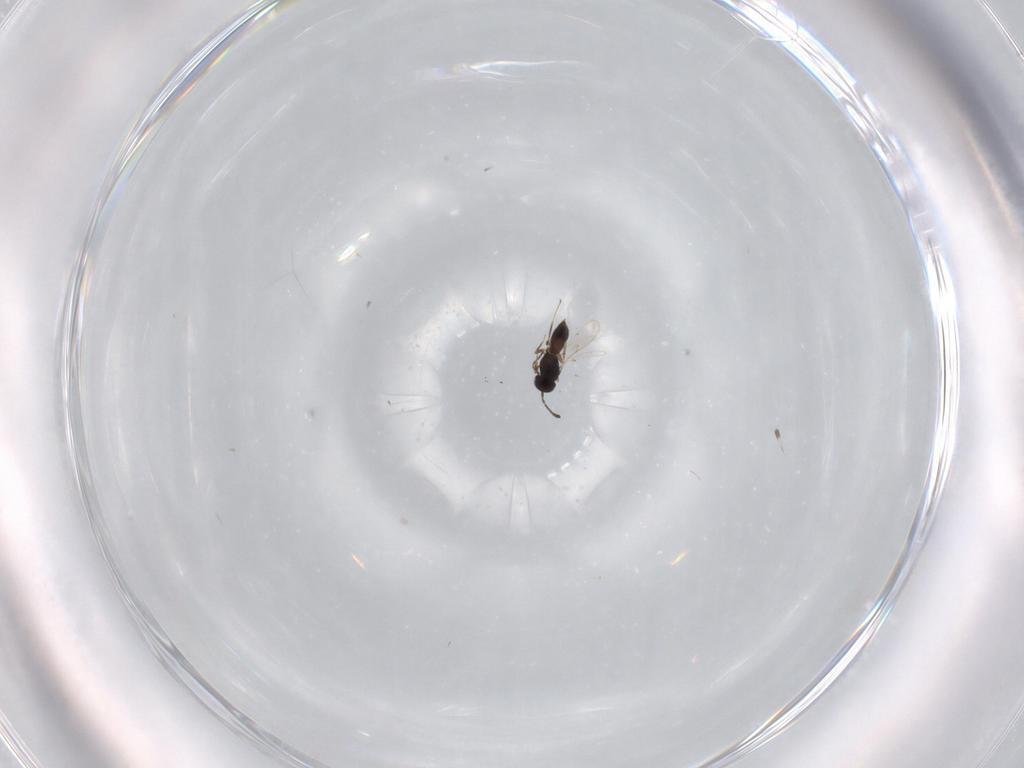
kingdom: Animalia
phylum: Arthropoda
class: Insecta
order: Hymenoptera
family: Scelionidae
